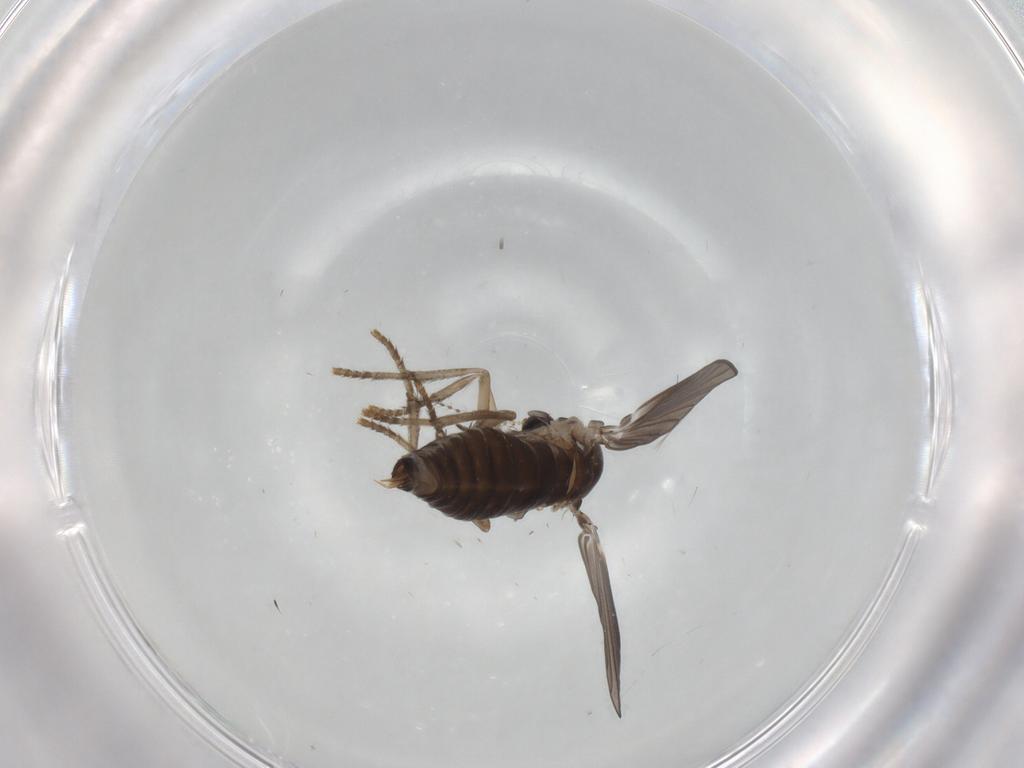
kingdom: Animalia
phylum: Arthropoda
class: Insecta
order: Diptera
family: Psychodidae
